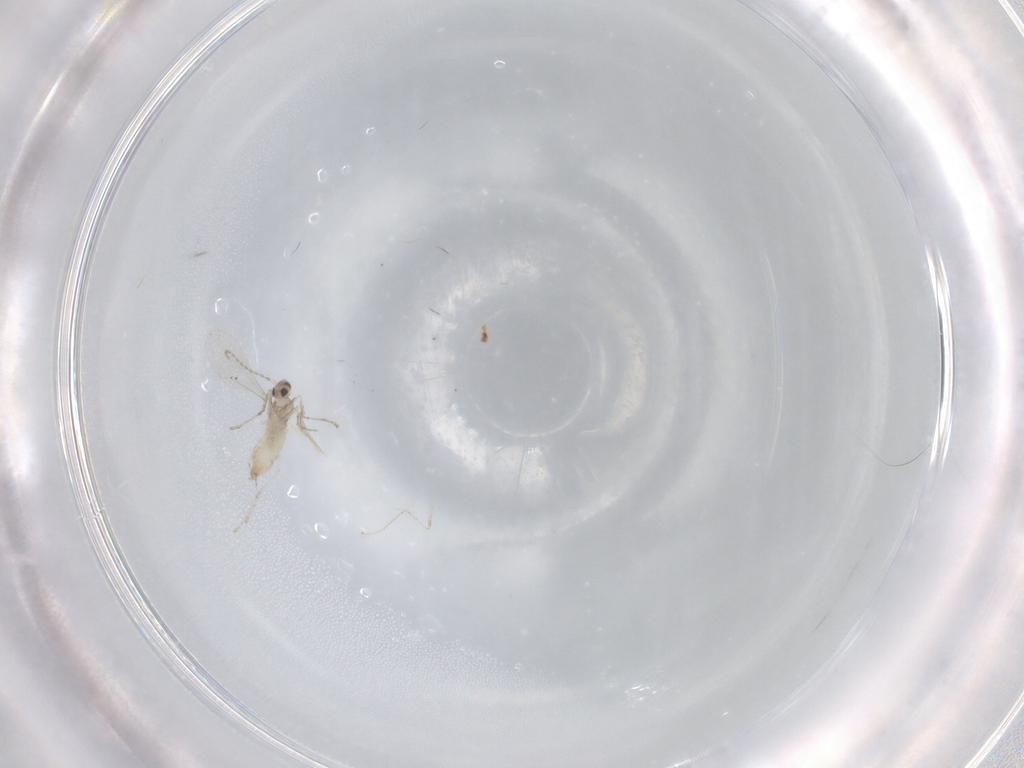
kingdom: Animalia
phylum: Arthropoda
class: Insecta
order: Diptera
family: Cecidomyiidae
